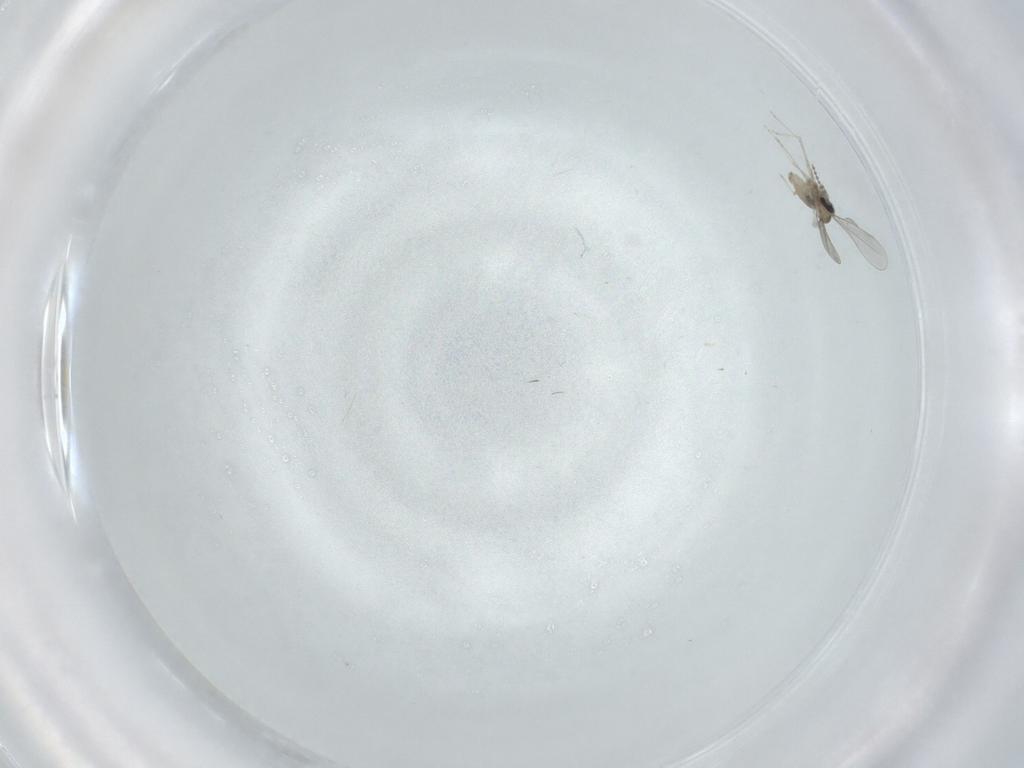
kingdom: Animalia
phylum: Arthropoda
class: Insecta
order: Diptera
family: Cecidomyiidae
